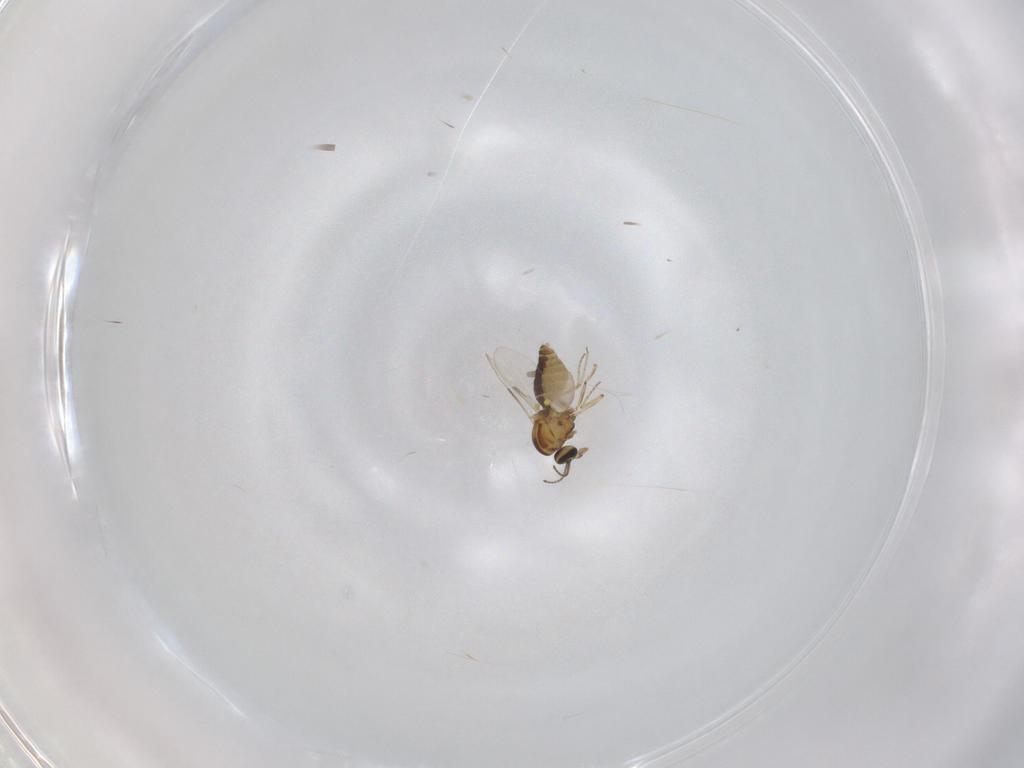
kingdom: Animalia
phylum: Arthropoda
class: Insecta
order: Diptera
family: Ceratopogonidae
